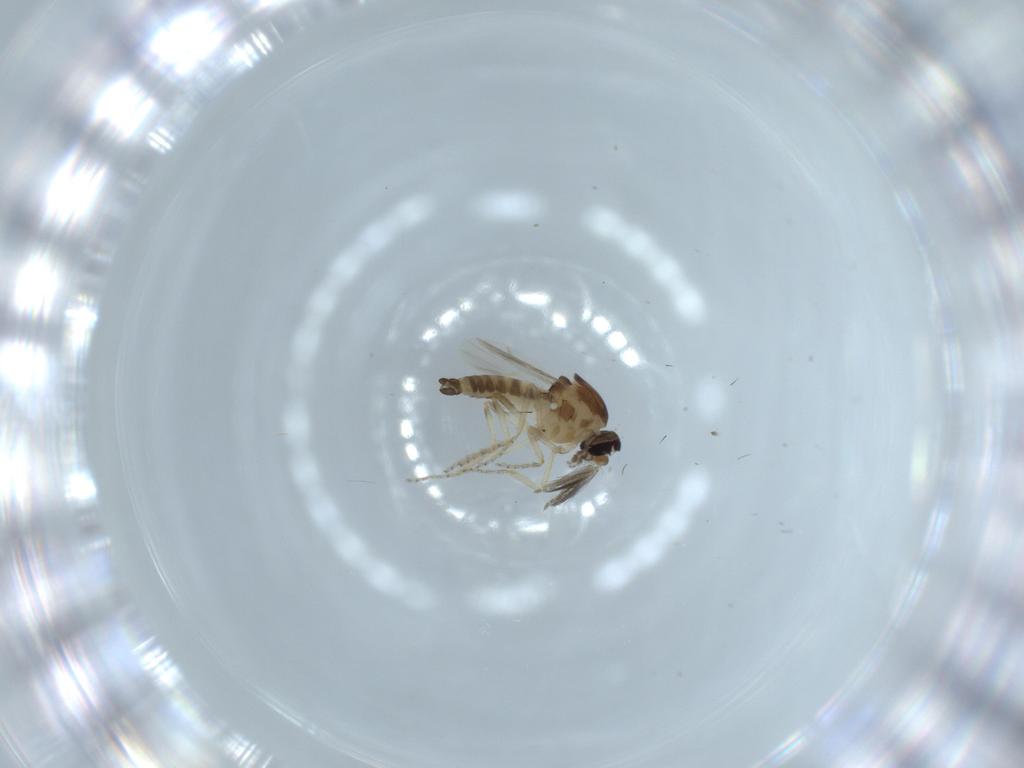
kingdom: Animalia
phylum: Arthropoda
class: Insecta
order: Diptera
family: Ceratopogonidae
